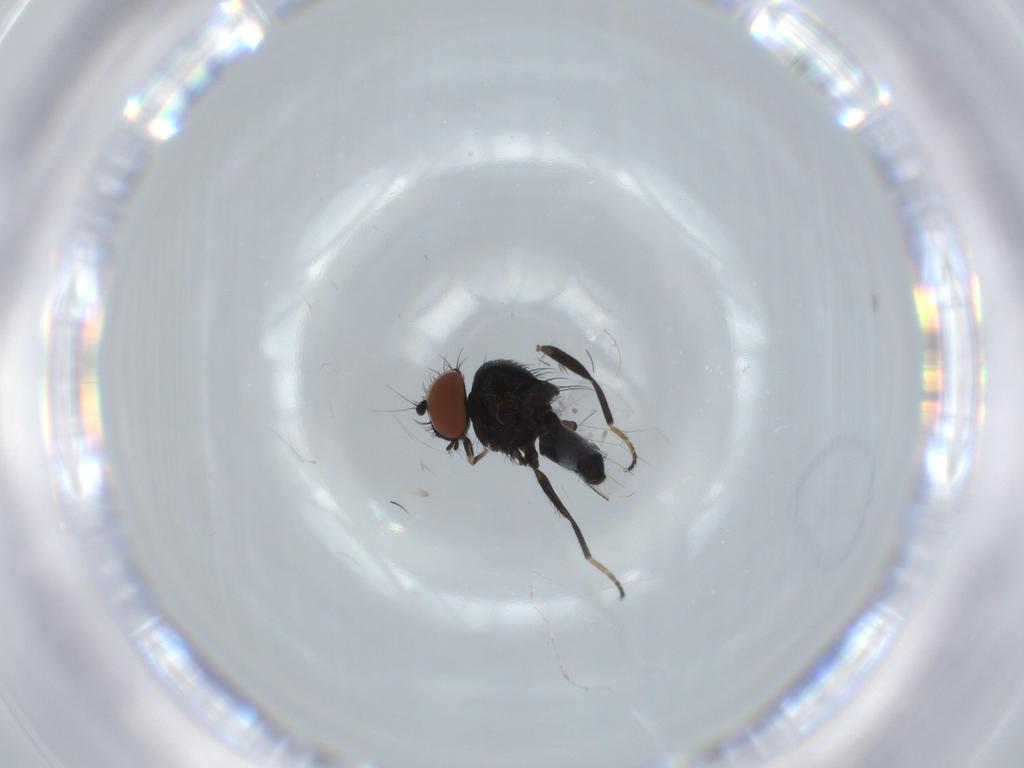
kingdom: Animalia
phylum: Arthropoda
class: Insecta
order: Diptera
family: Milichiidae
